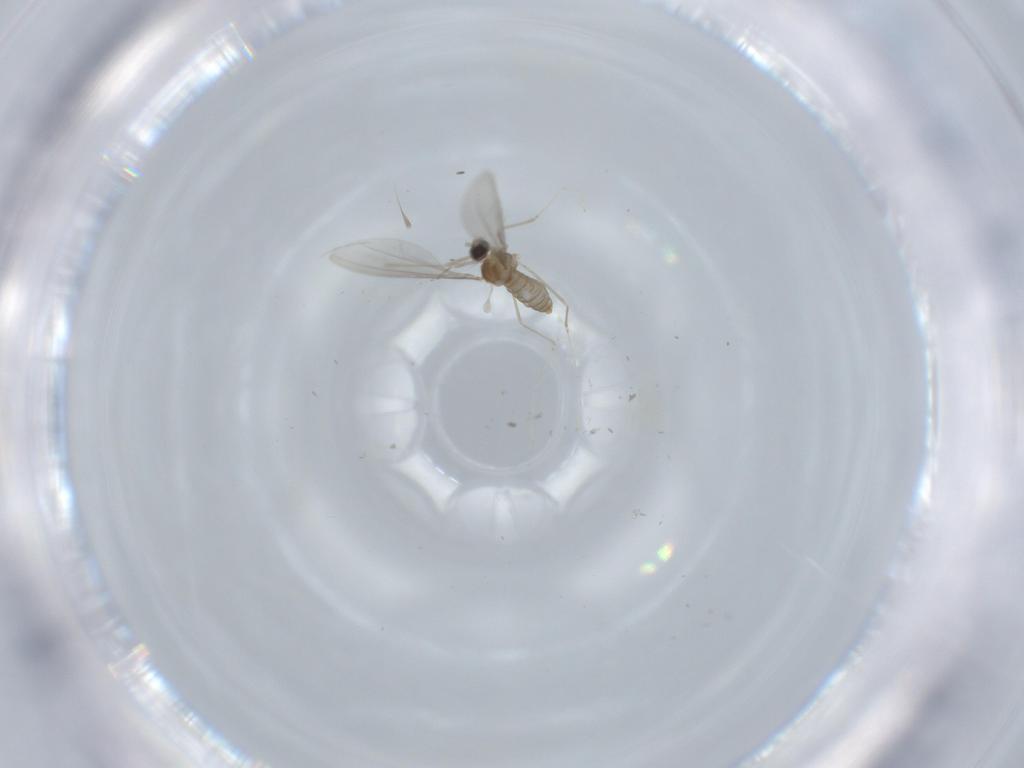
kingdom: Animalia
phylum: Arthropoda
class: Insecta
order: Diptera
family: Cecidomyiidae
